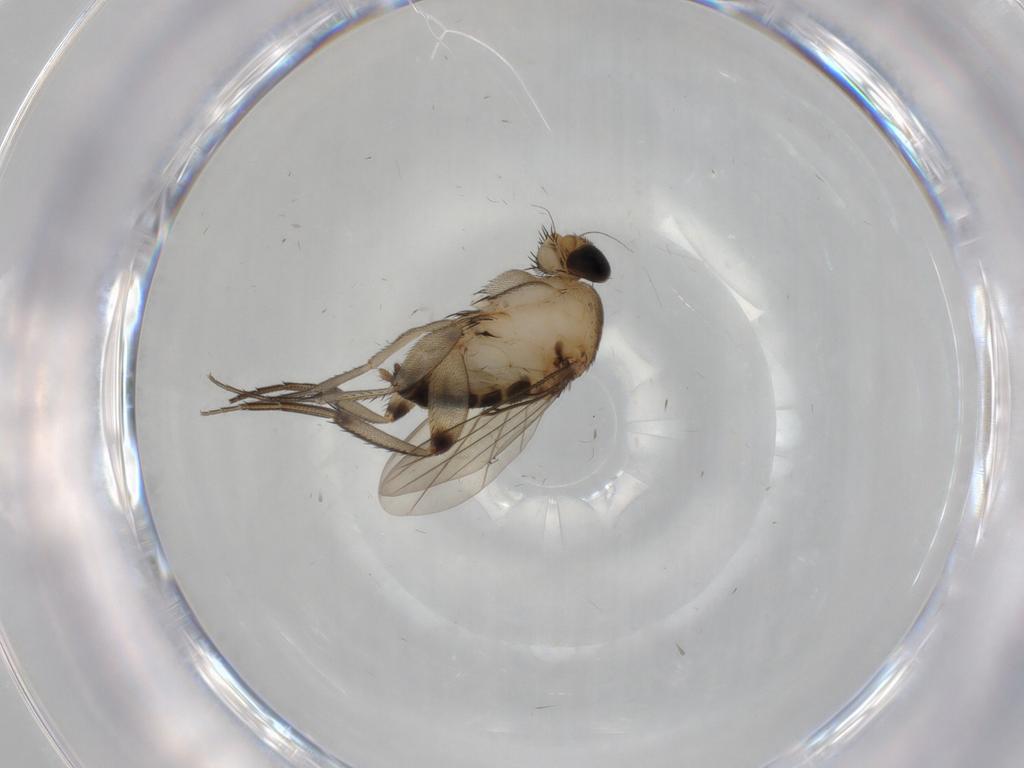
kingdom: Animalia
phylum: Arthropoda
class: Insecta
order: Diptera
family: Phoridae
